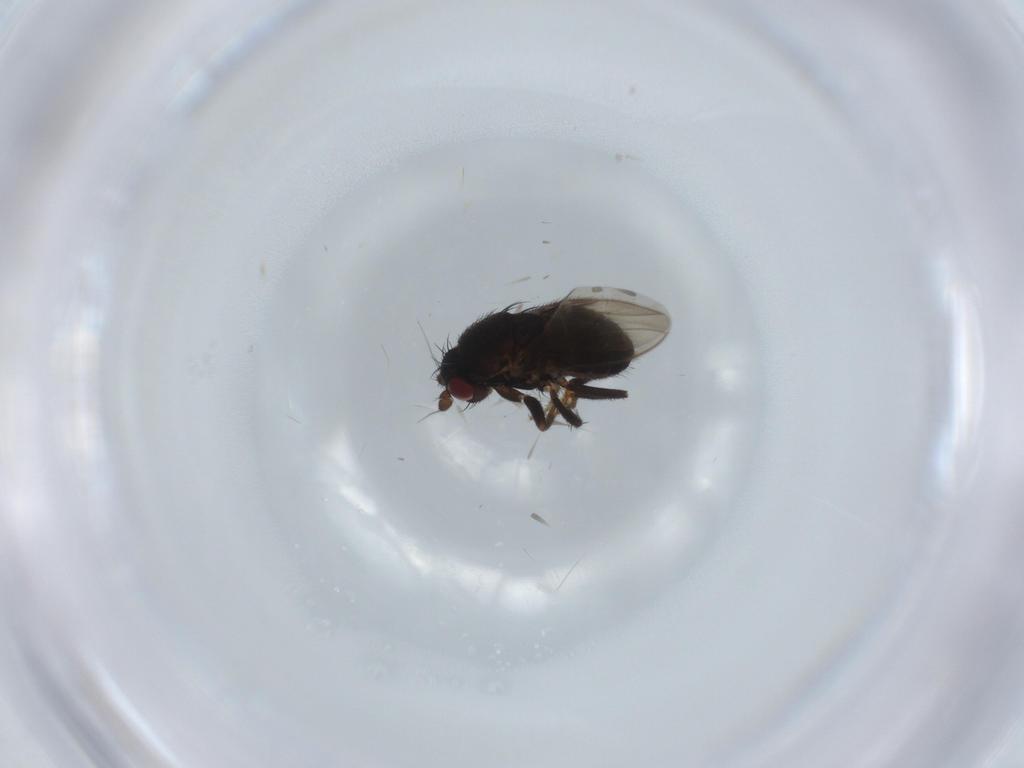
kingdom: Animalia
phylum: Arthropoda
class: Insecta
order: Diptera
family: Sphaeroceridae
